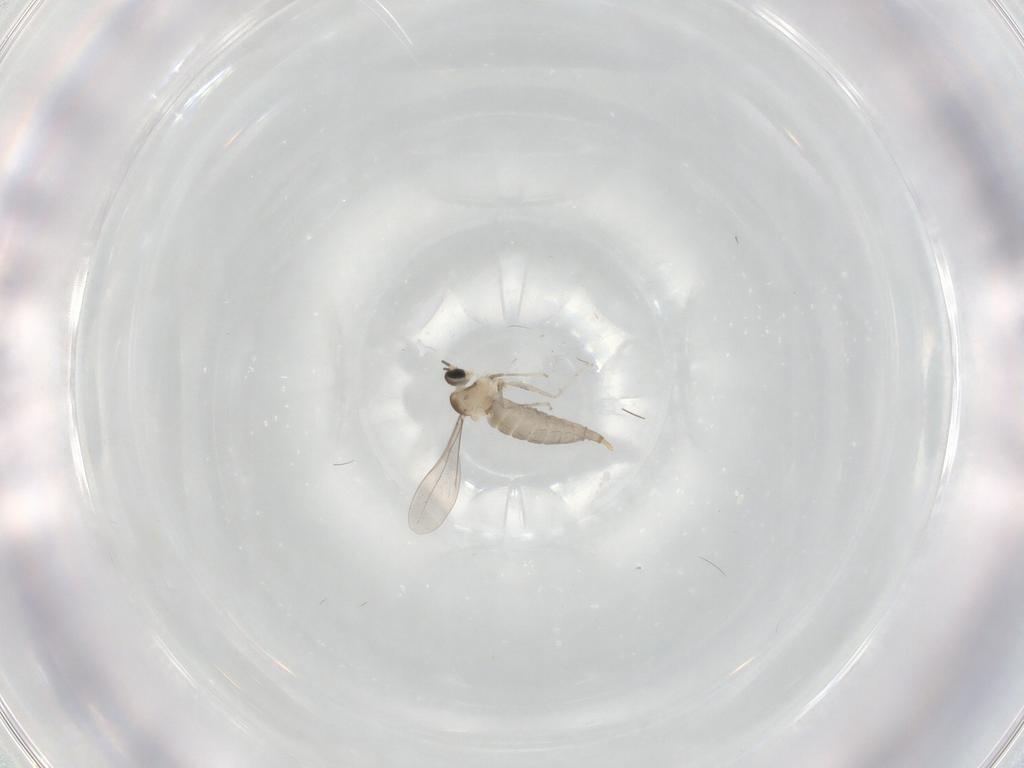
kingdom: Animalia
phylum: Arthropoda
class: Insecta
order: Diptera
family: Cecidomyiidae
